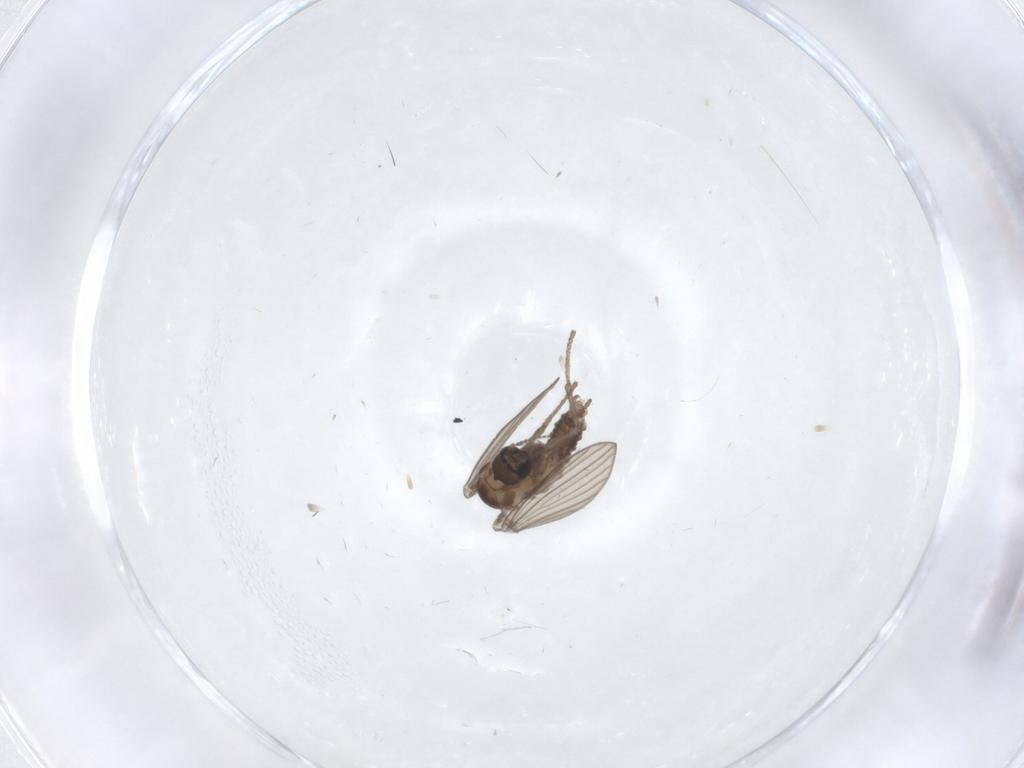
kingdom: Animalia
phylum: Arthropoda
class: Insecta
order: Diptera
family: Psychodidae
